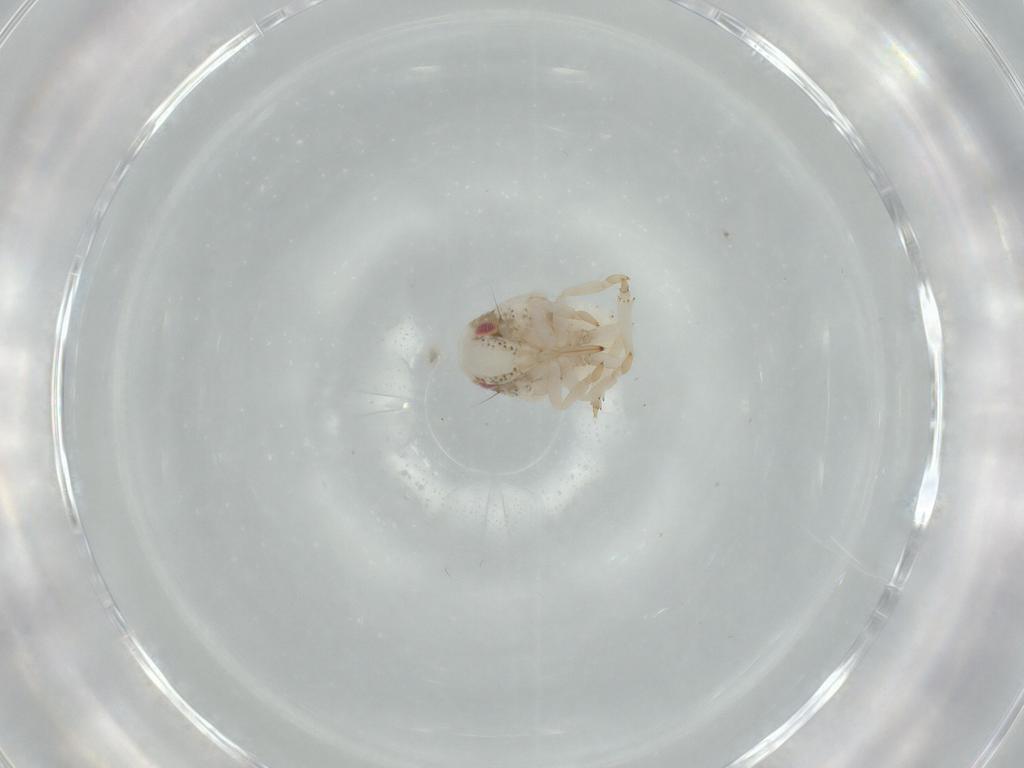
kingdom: Animalia
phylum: Arthropoda
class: Insecta
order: Hemiptera
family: Acanaloniidae
